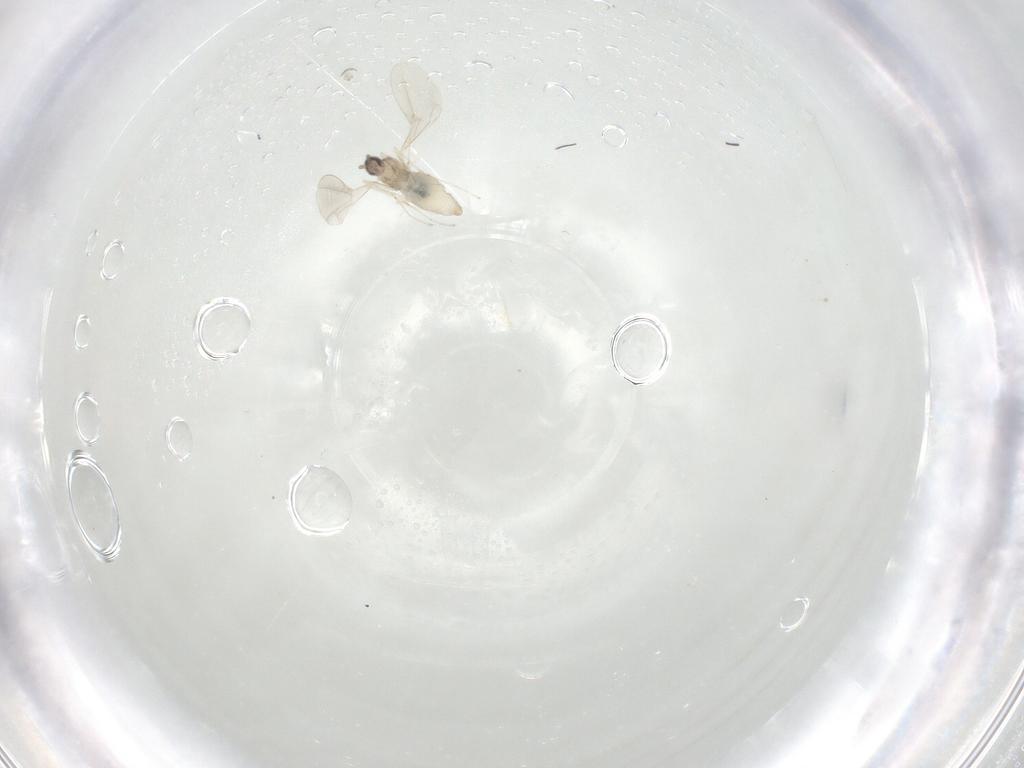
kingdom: Animalia
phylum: Arthropoda
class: Insecta
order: Diptera
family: Cecidomyiidae
